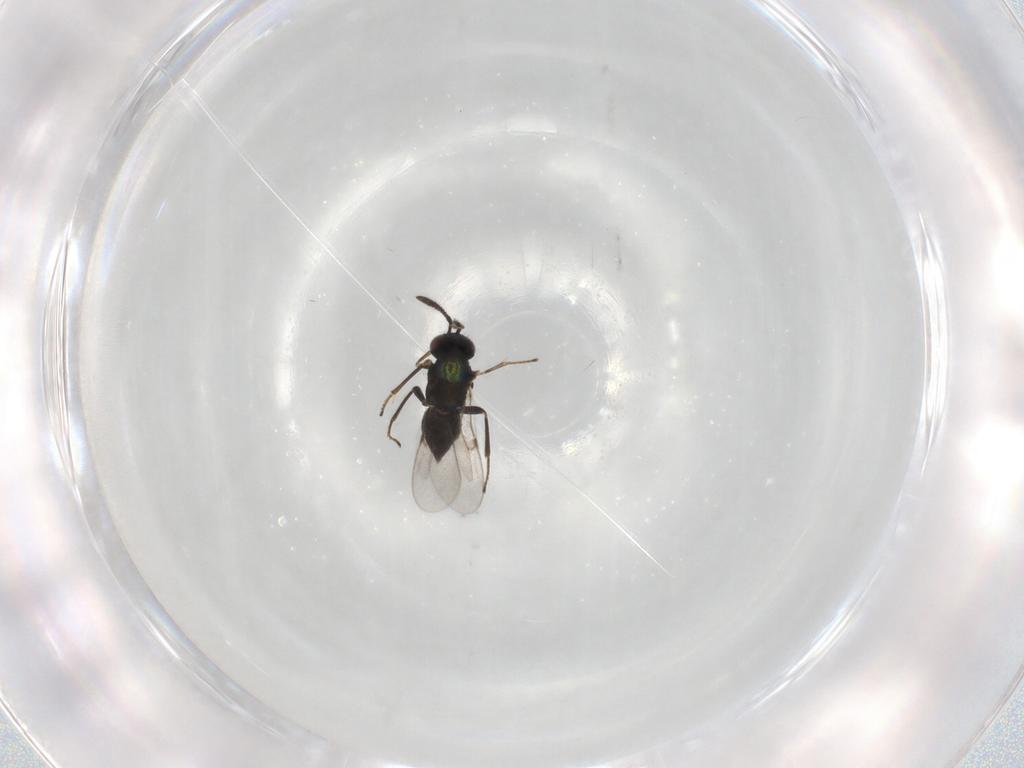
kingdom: Animalia
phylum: Arthropoda
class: Insecta
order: Hymenoptera
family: Encyrtidae
